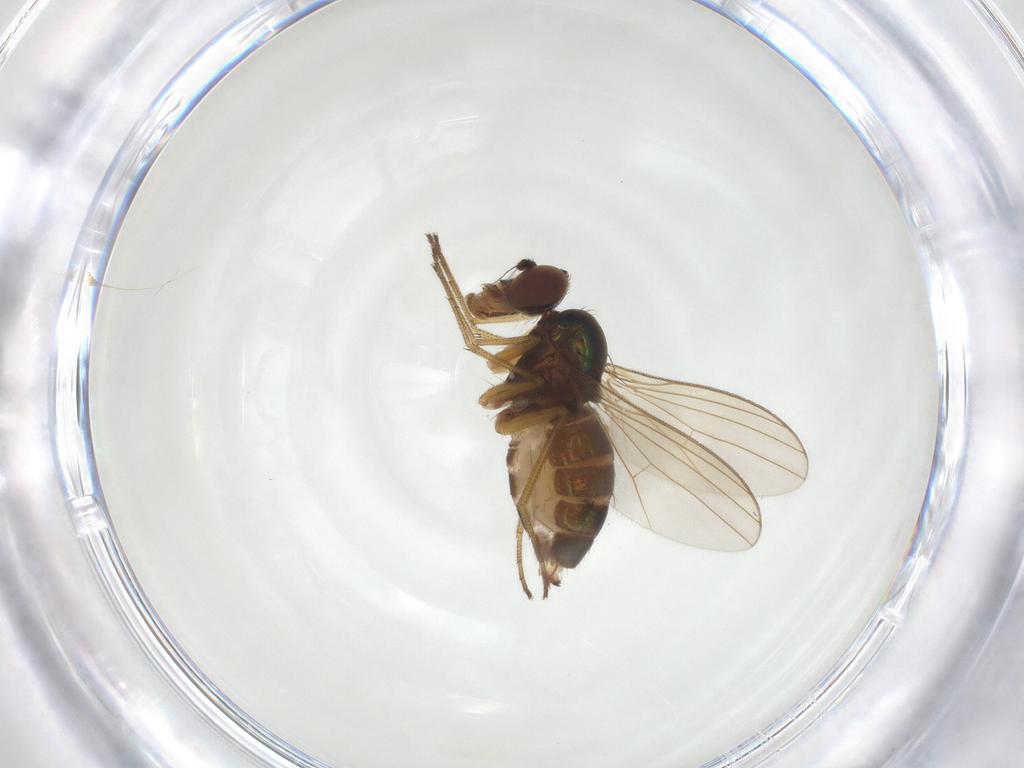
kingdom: Animalia
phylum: Arthropoda
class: Insecta
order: Diptera
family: Dolichopodidae
